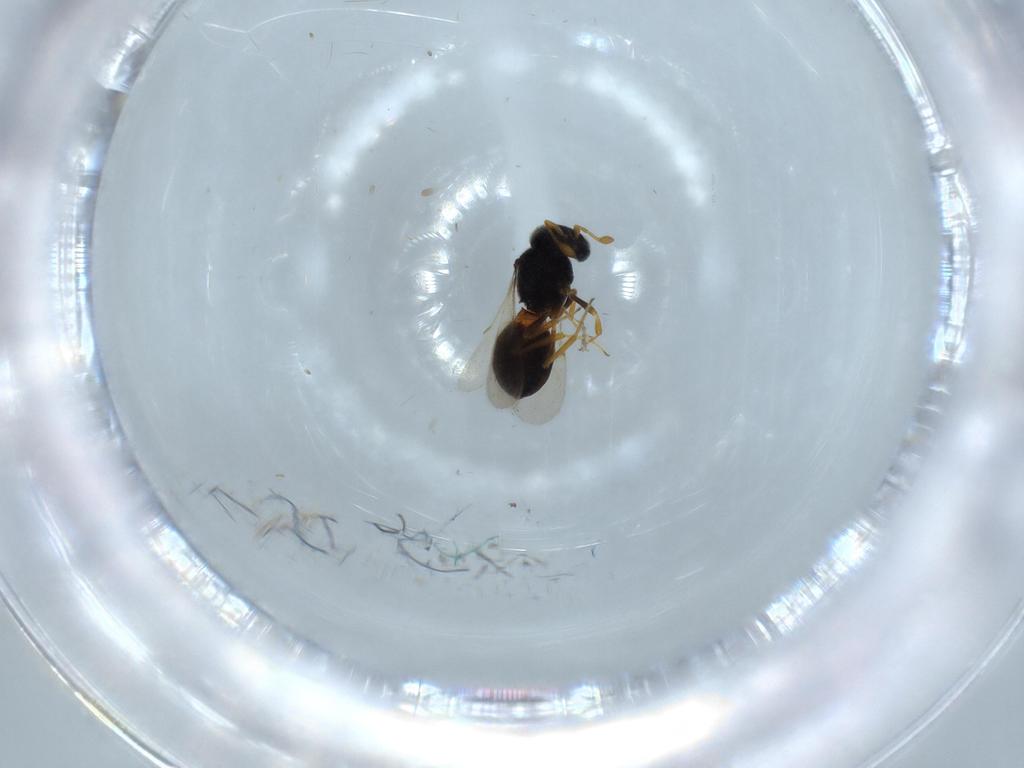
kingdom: Animalia
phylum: Arthropoda
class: Insecta
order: Hymenoptera
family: Scelionidae
